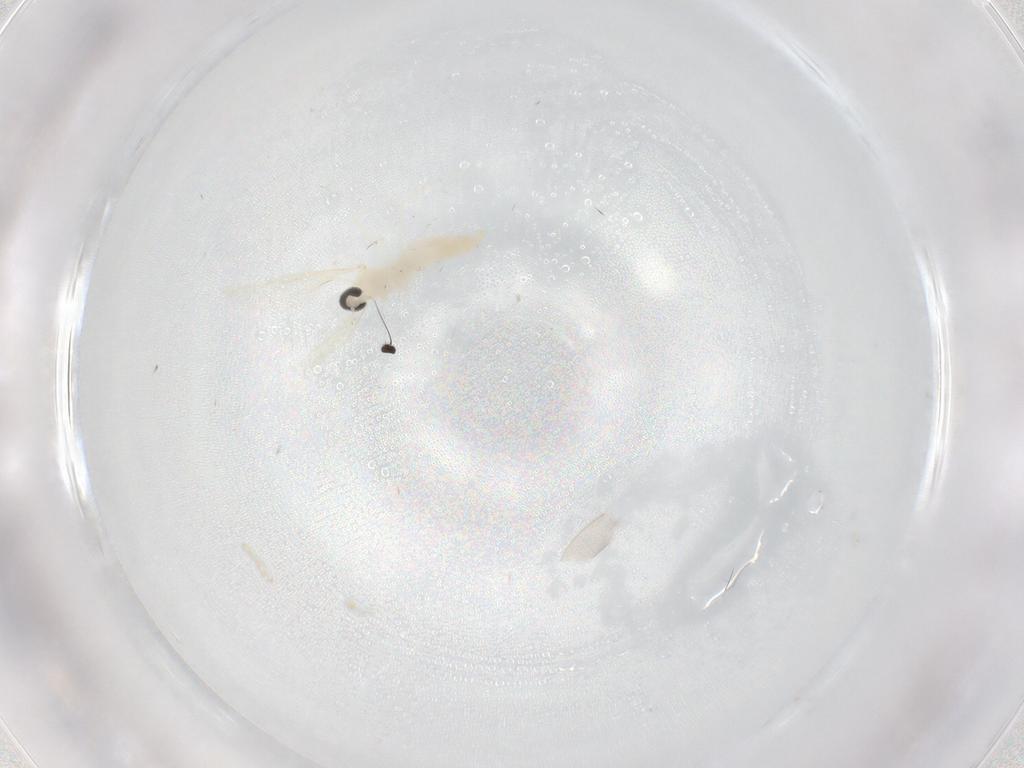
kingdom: Animalia
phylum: Arthropoda
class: Insecta
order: Diptera
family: Cecidomyiidae
